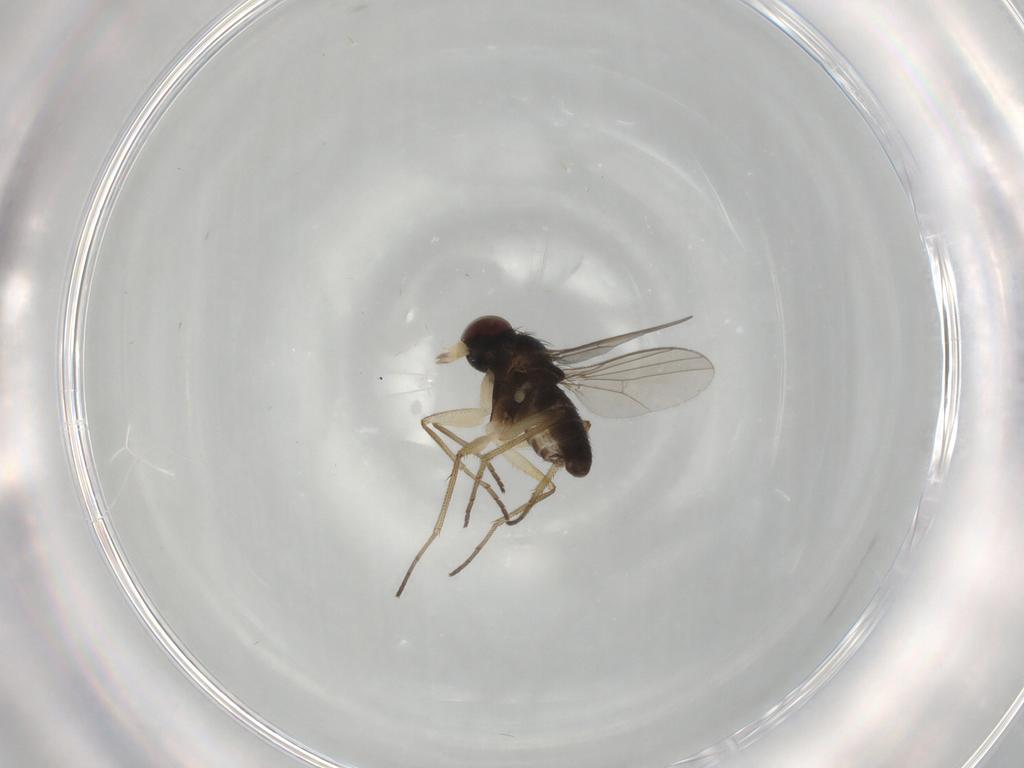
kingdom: Animalia
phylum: Arthropoda
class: Insecta
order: Diptera
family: Dolichopodidae
